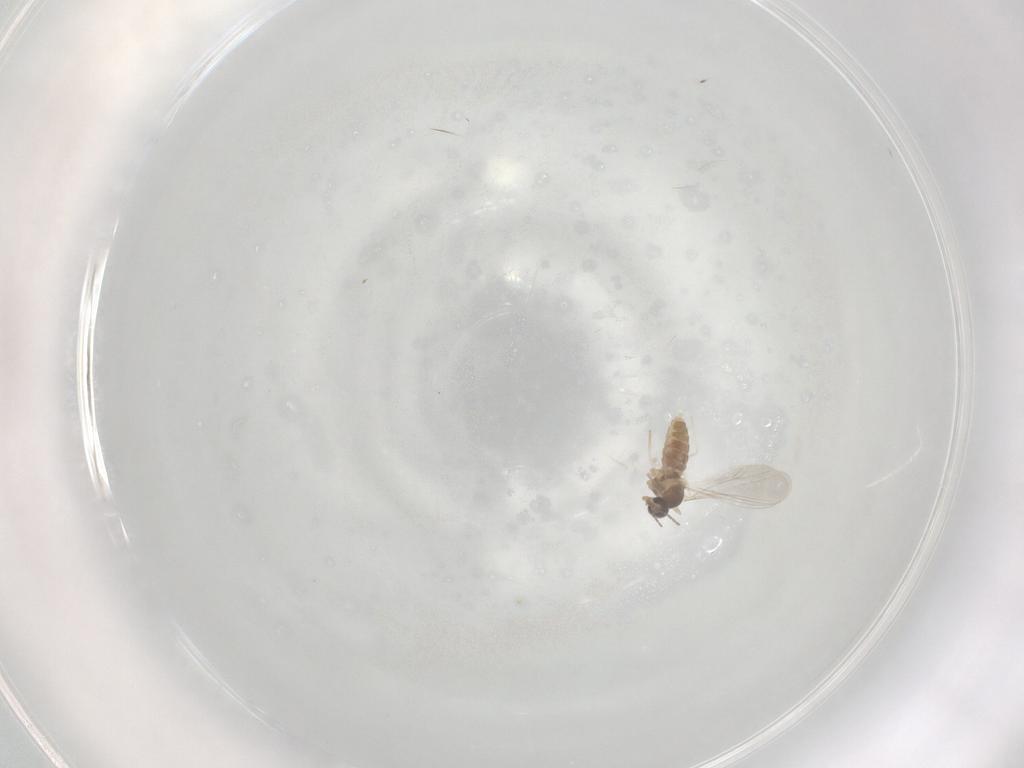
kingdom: Animalia
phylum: Arthropoda
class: Insecta
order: Diptera
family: Cecidomyiidae
